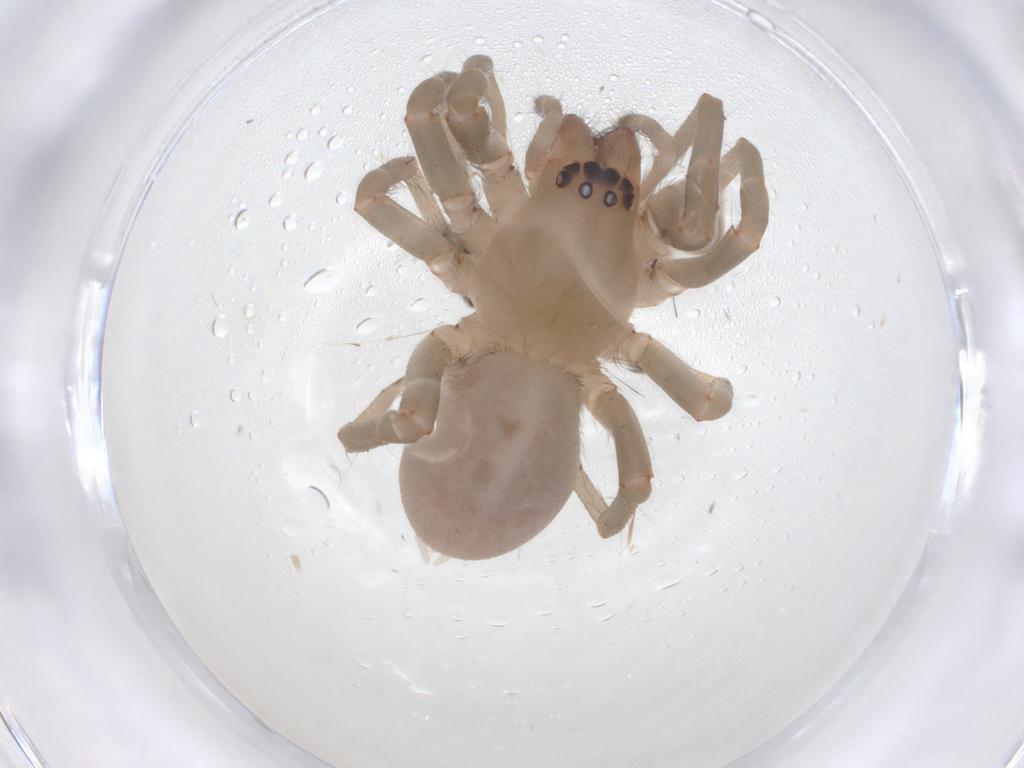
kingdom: Animalia
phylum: Arthropoda
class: Arachnida
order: Araneae
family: Cheiracanthiidae
